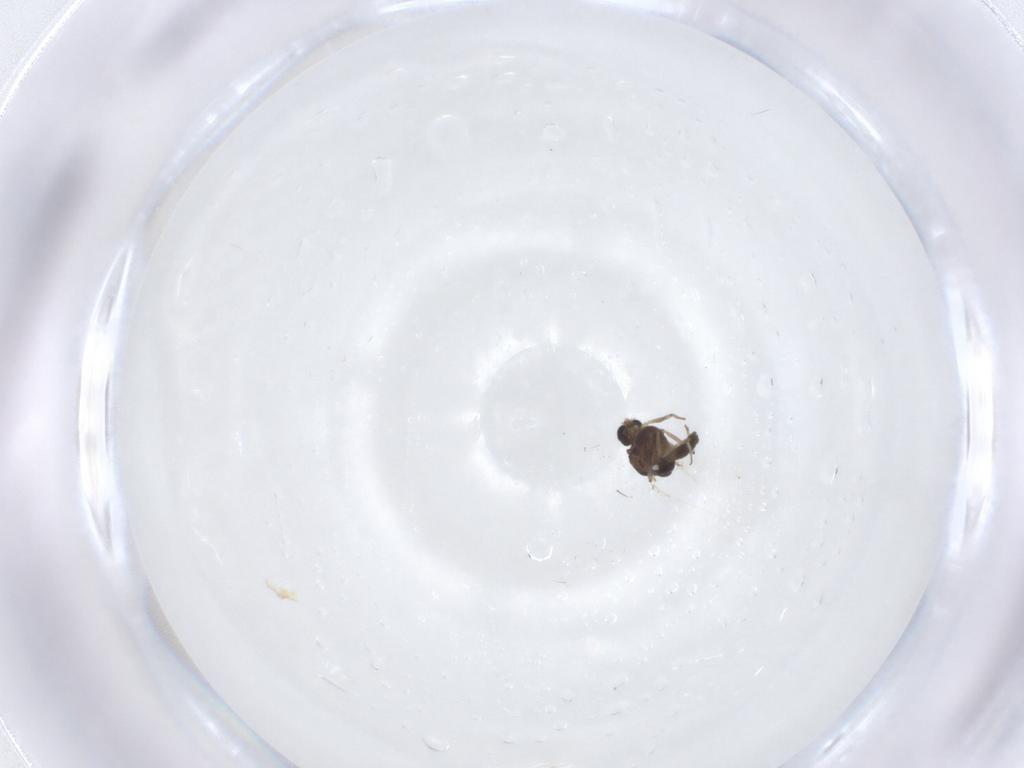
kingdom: Animalia
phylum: Arthropoda
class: Insecta
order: Diptera
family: Chironomidae
